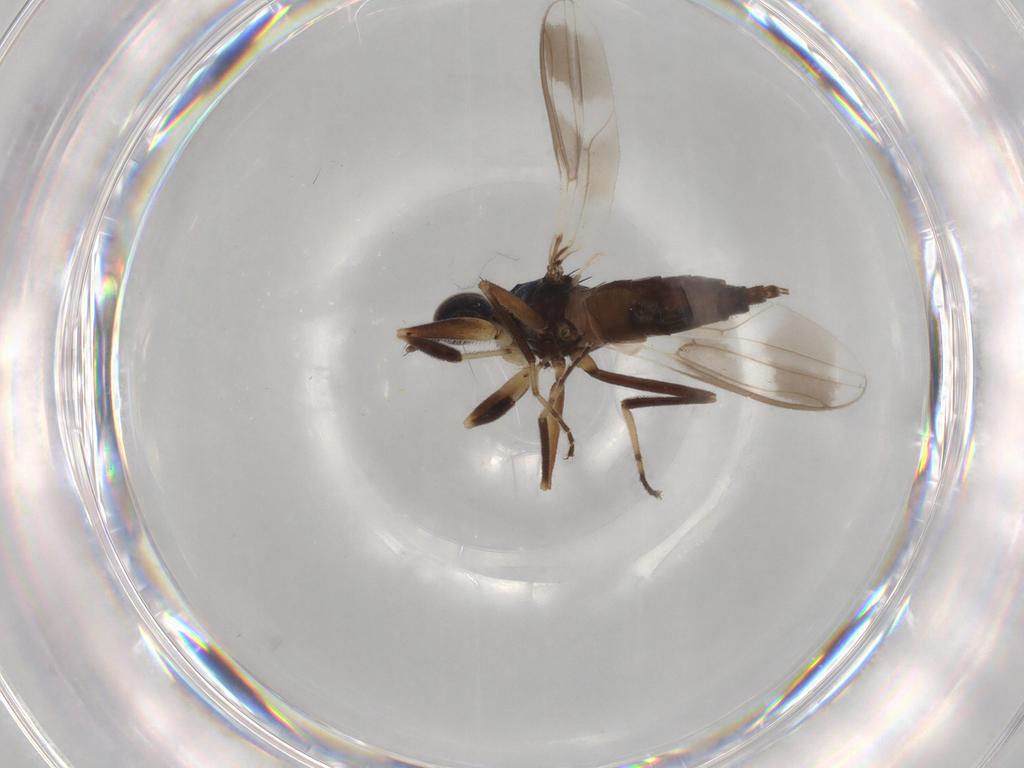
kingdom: Animalia
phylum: Arthropoda
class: Insecta
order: Diptera
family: Hybotidae
